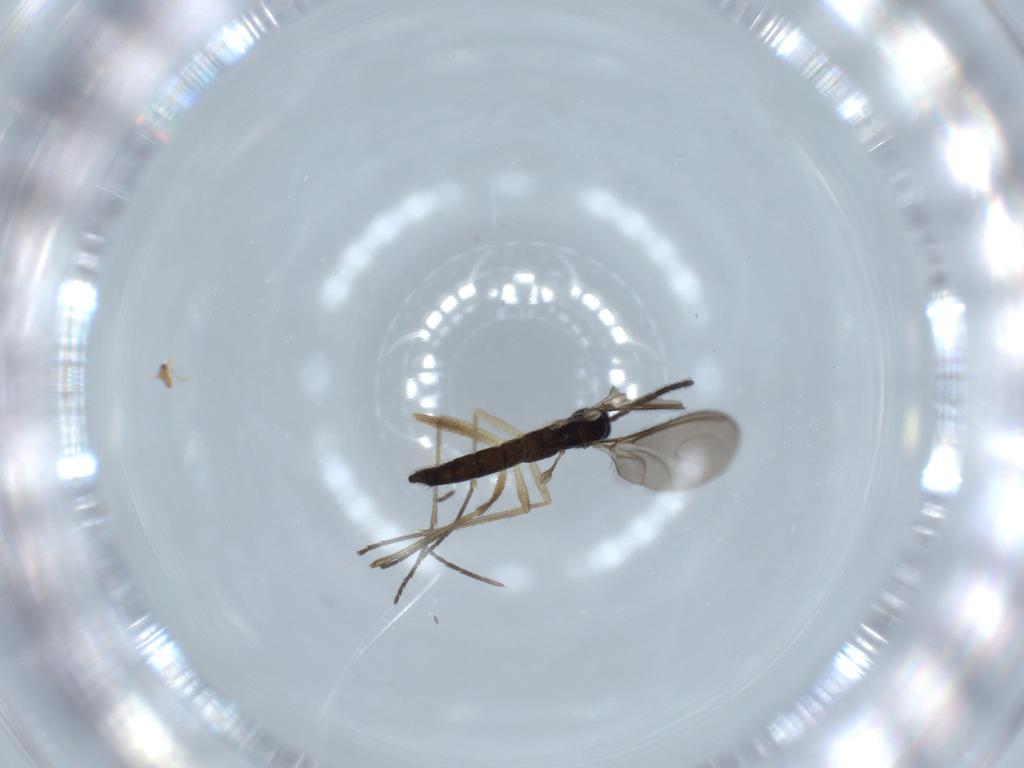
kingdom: Animalia
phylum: Arthropoda
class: Insecta
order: Diptera
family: Sciaridae
